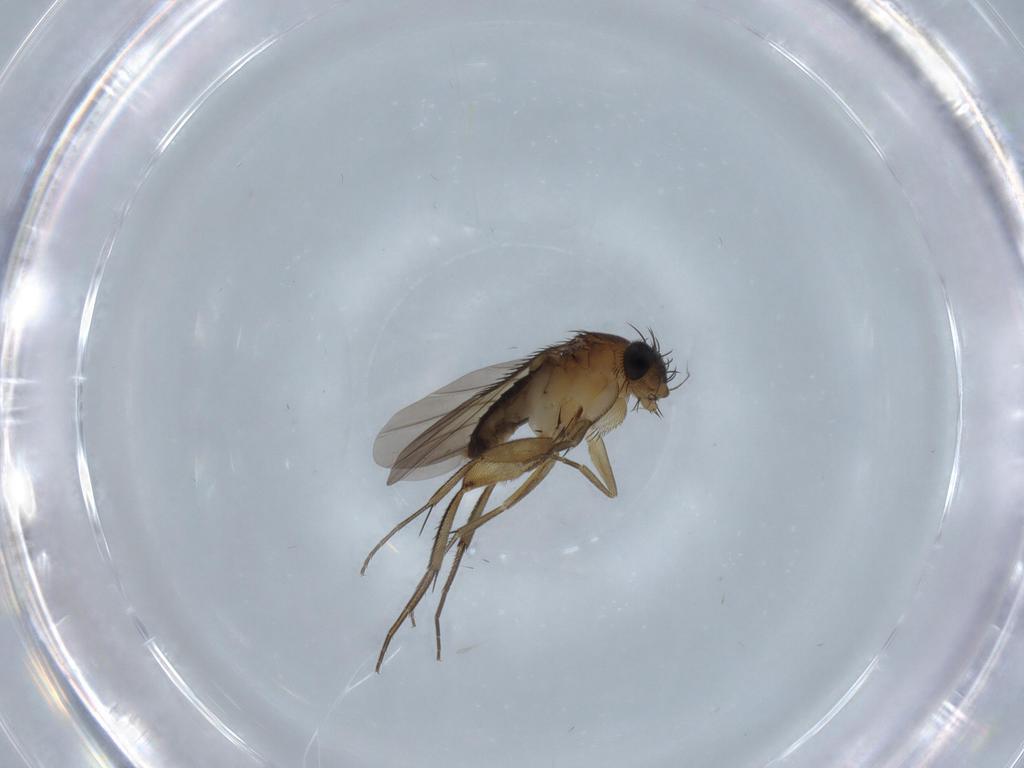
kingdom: Animalia
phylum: Arthropoda
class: Insecta
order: Diptera
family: Phoridae
